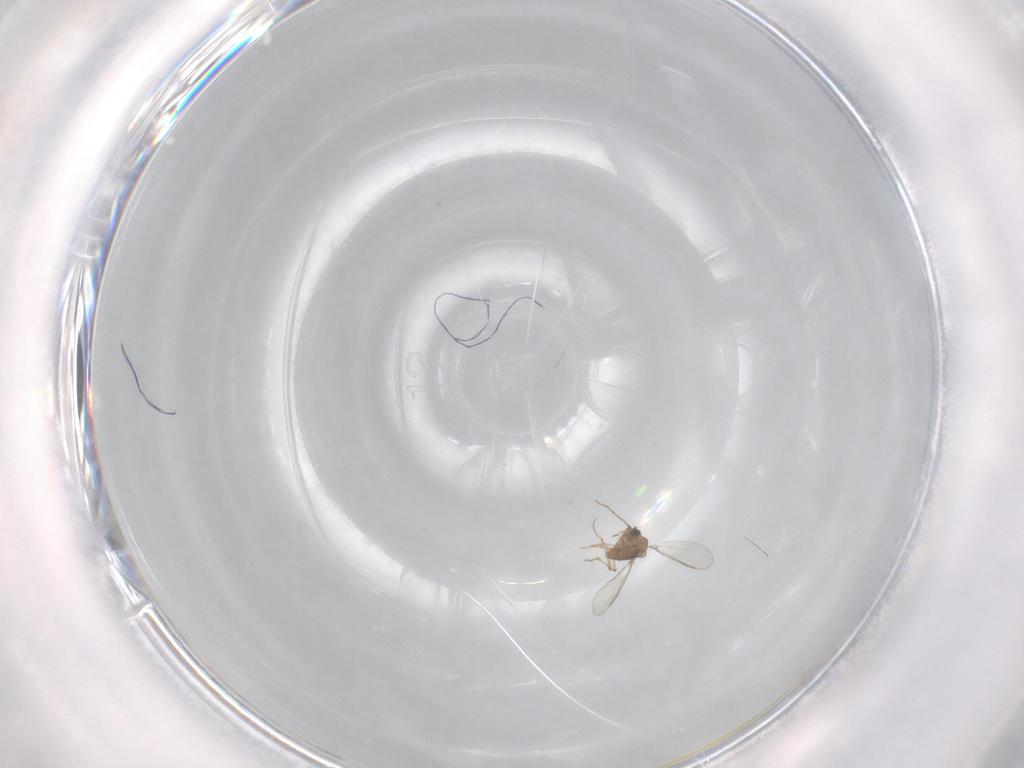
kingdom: Animalia
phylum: Arthropoda
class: Insecta
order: Diptera
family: Chironomidae
